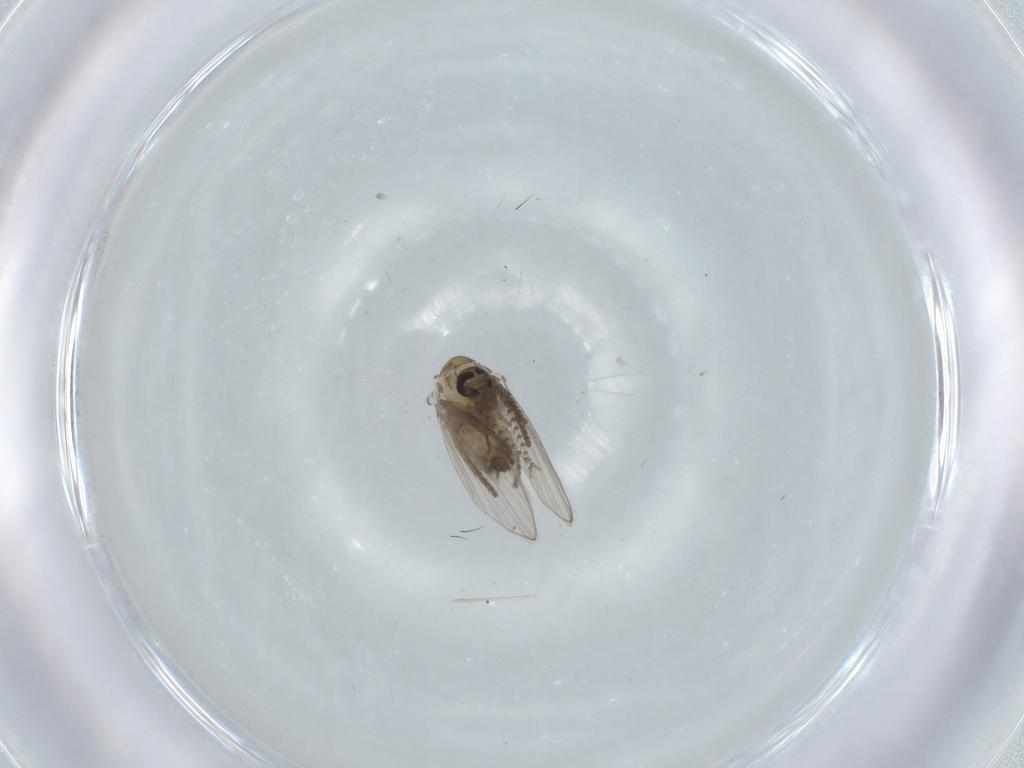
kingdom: Animalia
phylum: Arthropoda
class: Insecta
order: Diptera
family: Psychodidae
